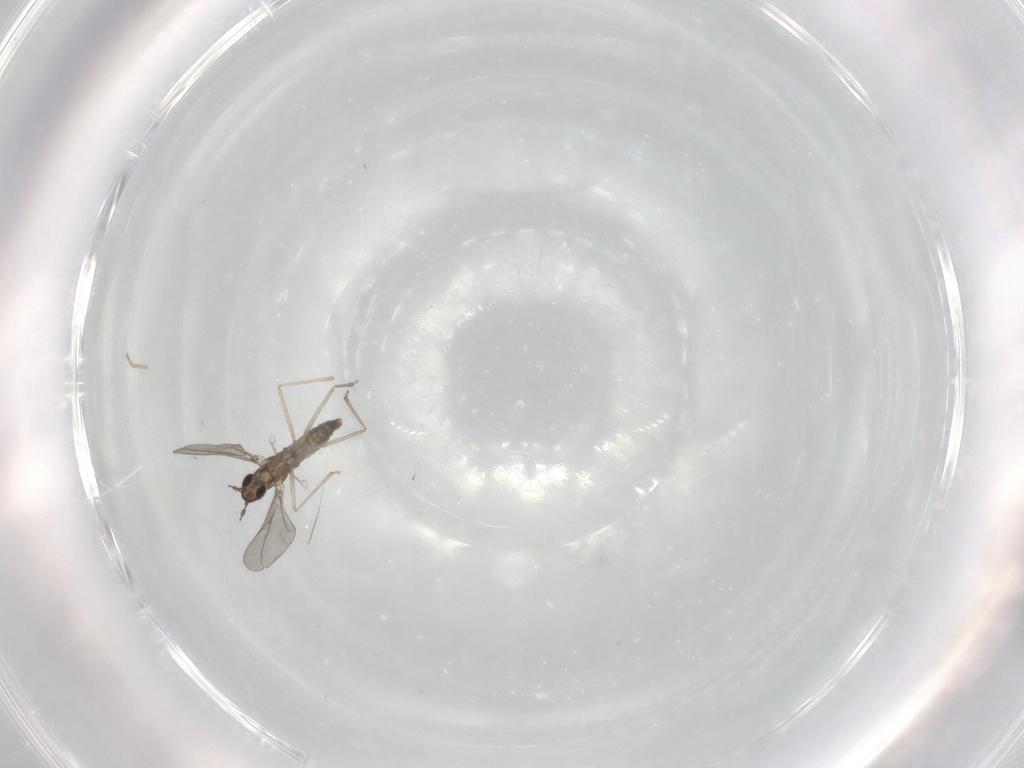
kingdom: Animalia
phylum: Arthropoda
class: Insecta
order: Diptera
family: Cecidomyiidae
